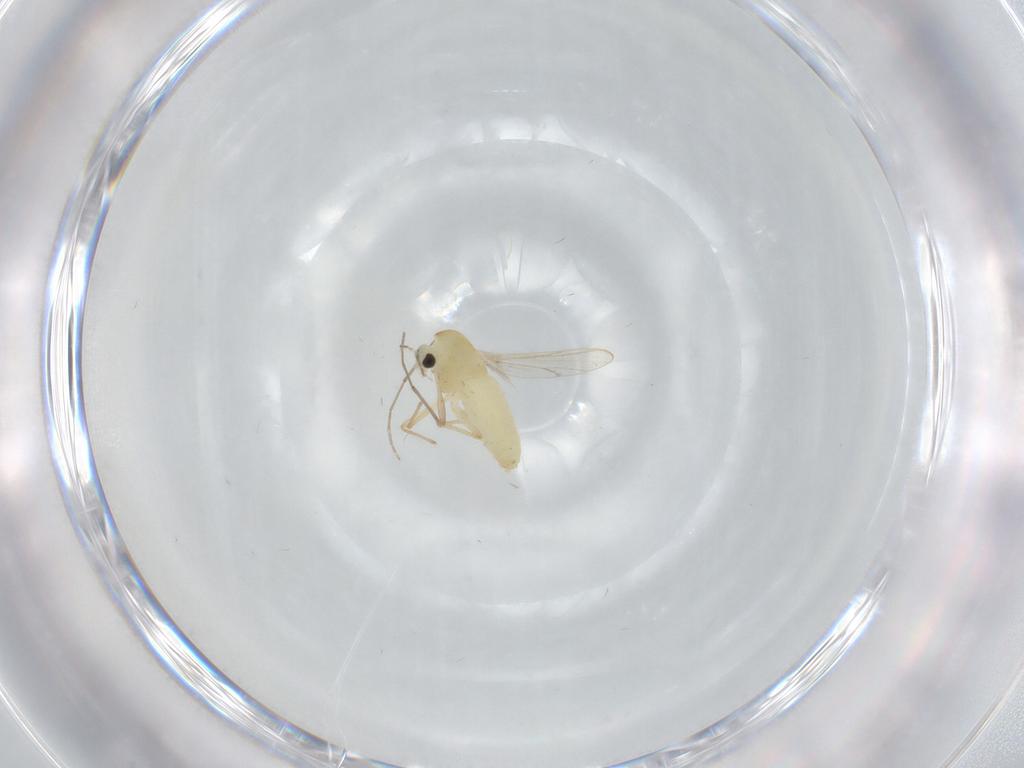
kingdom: Animalia
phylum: Arthropoda
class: Insecta
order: Diptera
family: Chironomidae
